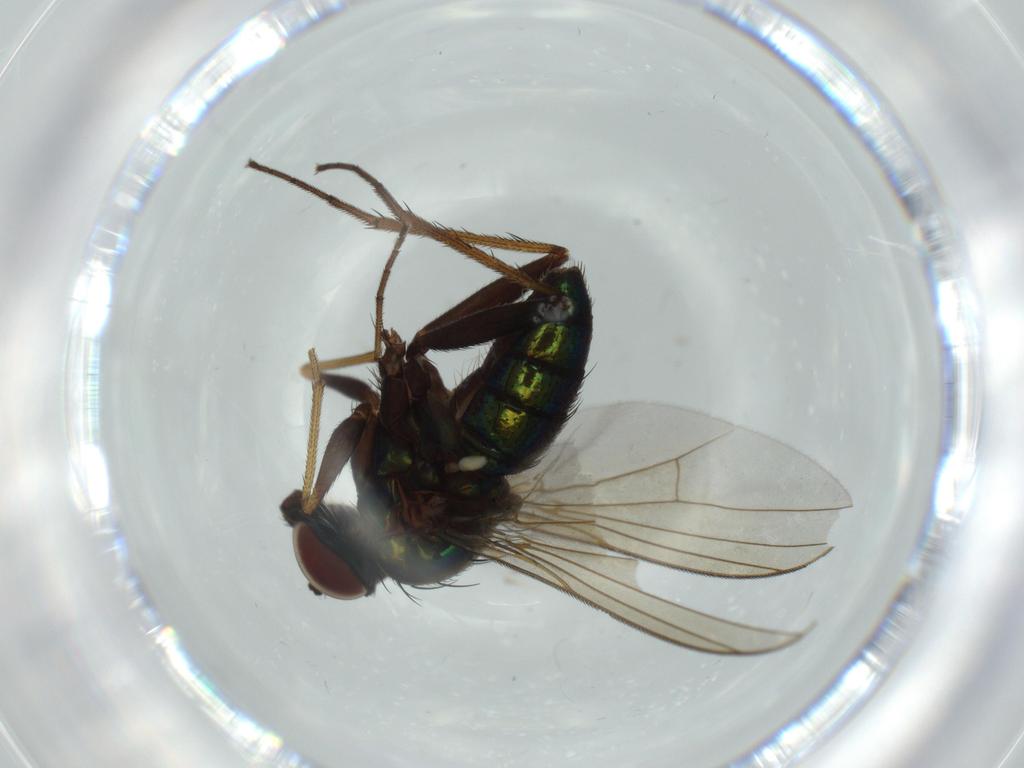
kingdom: Animalia
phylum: Arthropoda
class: Insecta
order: Diptera
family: Dolichopodidae
